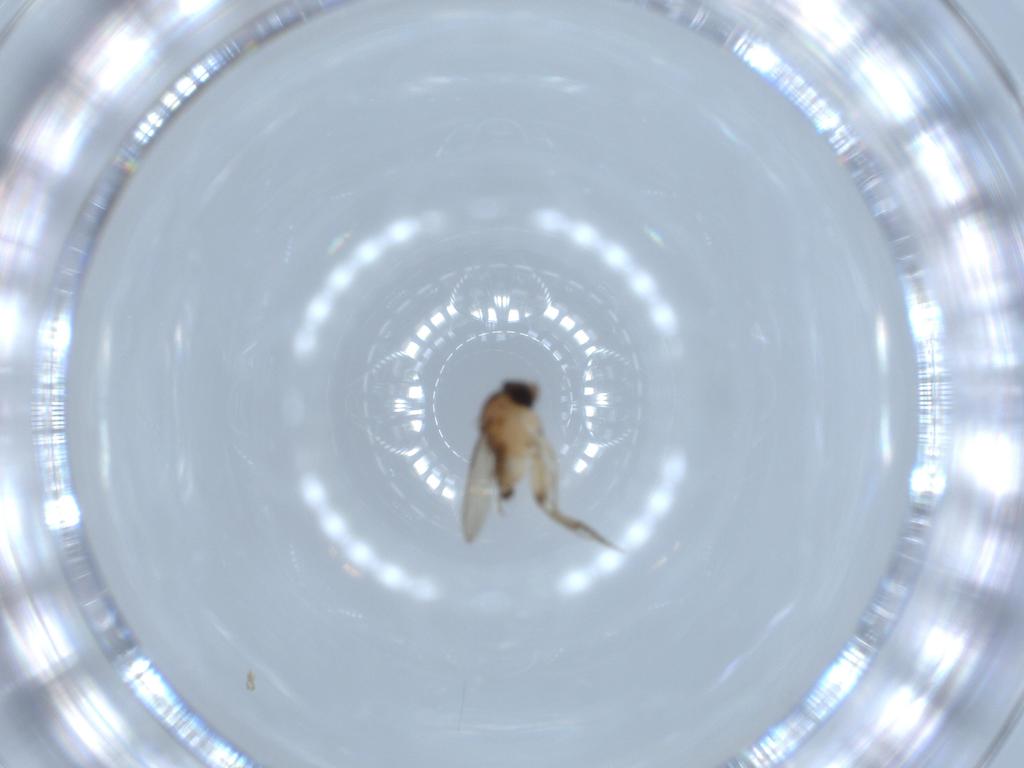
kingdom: Animalia
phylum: Arthropoda
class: Insecta
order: Diptera
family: Phoridae
